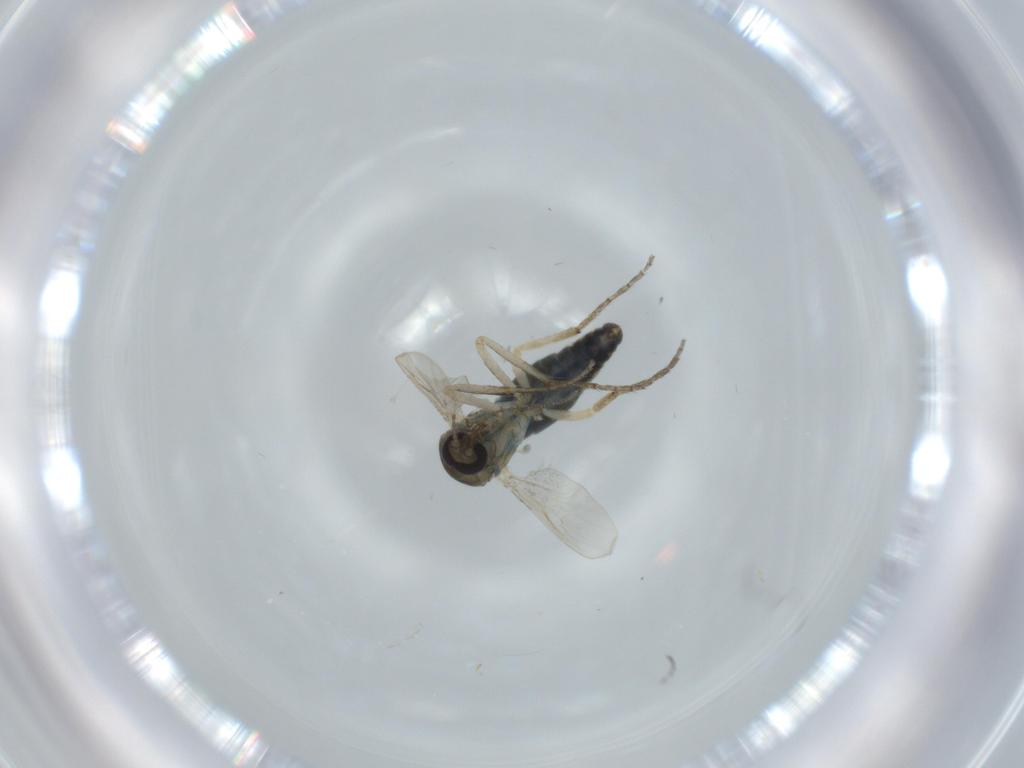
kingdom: Animalia
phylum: Arthropoda
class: Insecta
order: Diptera
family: Ceratopogonidae
